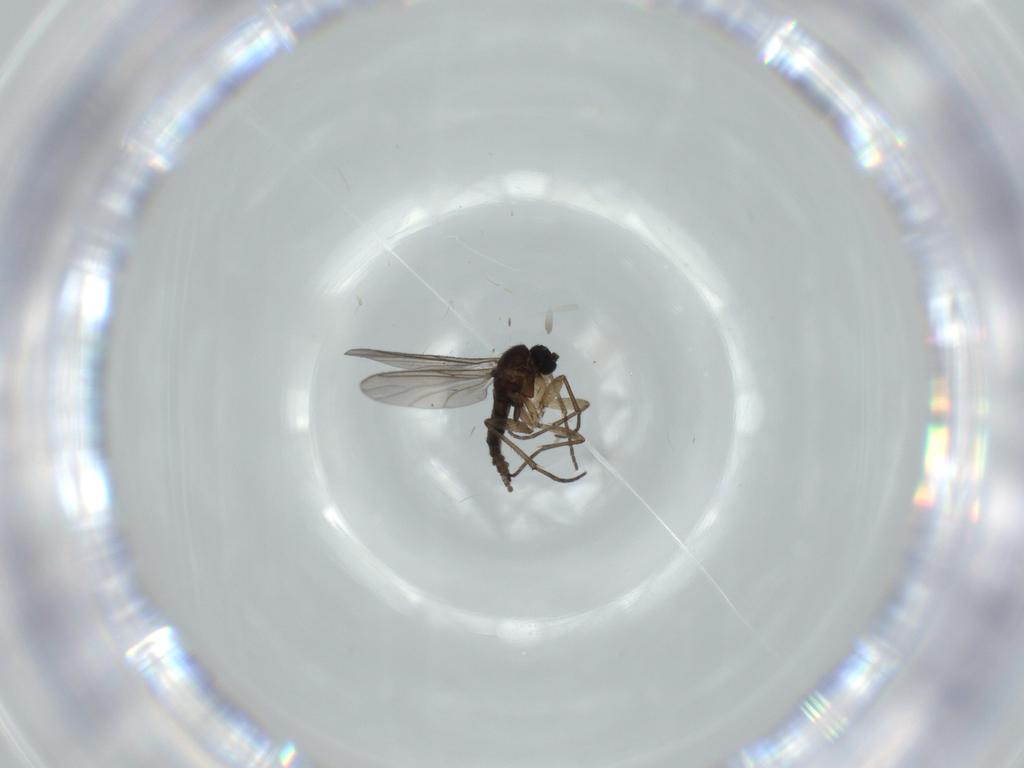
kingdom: Animalia
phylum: Arthropoda
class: Insecta
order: Diptera
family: Sciaridae
